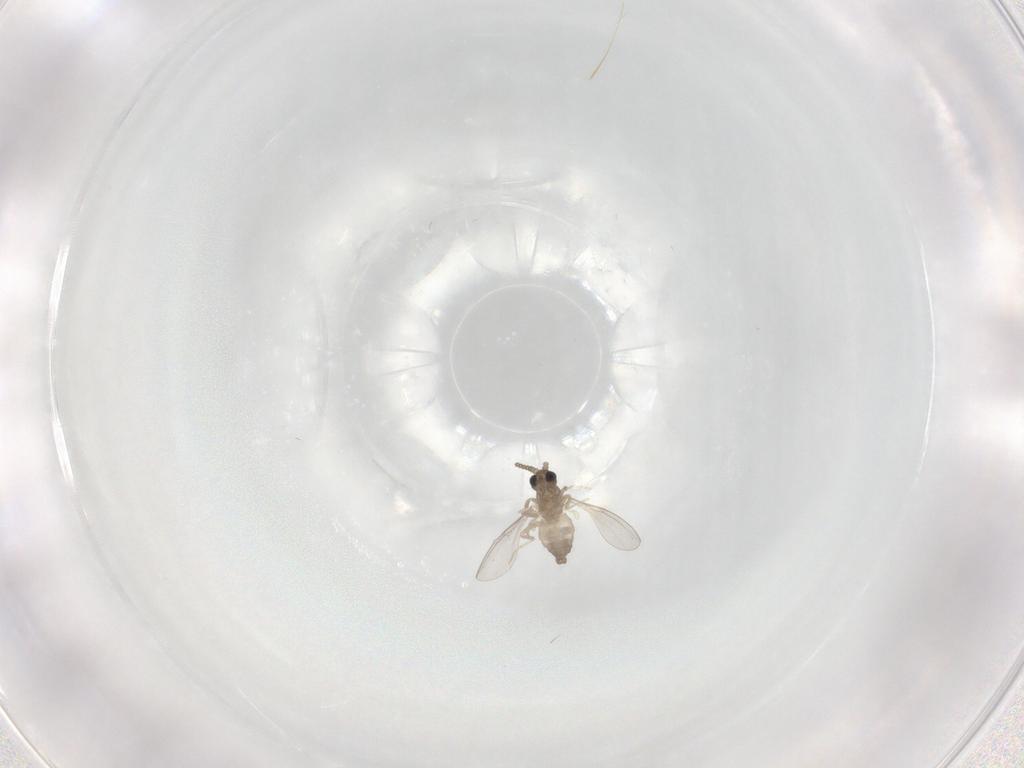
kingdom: Animalia
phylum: Arthropoda
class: Insecta
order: Diptera
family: Cecidomyiidae
